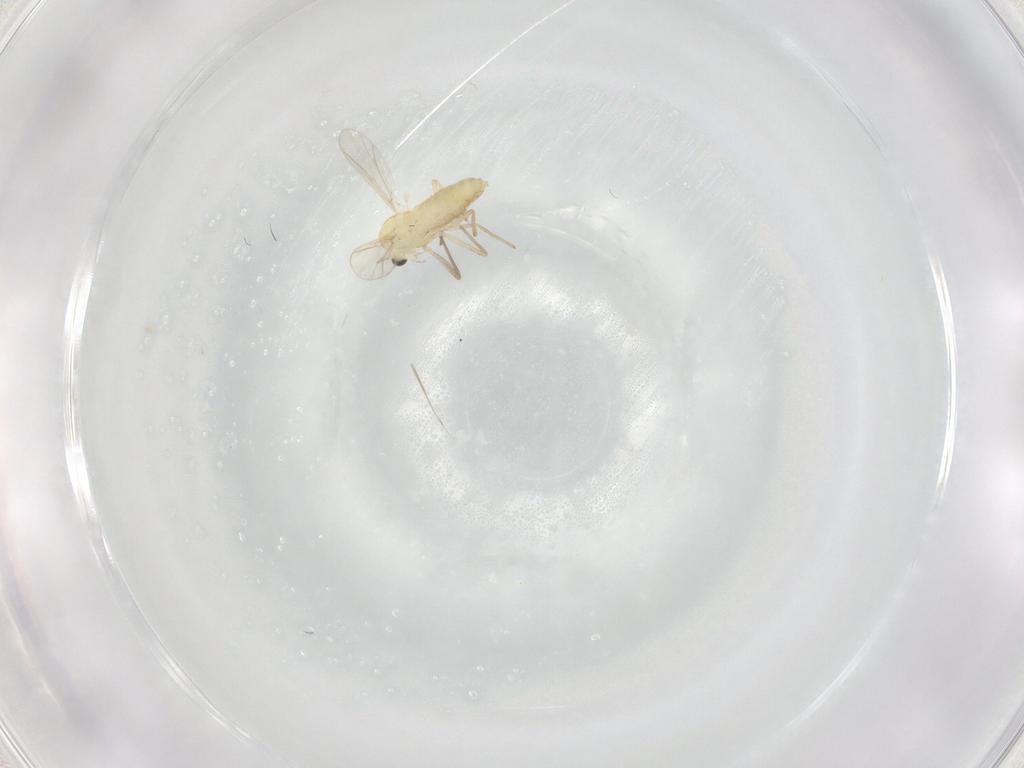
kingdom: Animalia
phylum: Arthropoda
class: Insecta
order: Diptera
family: Chironomidae
